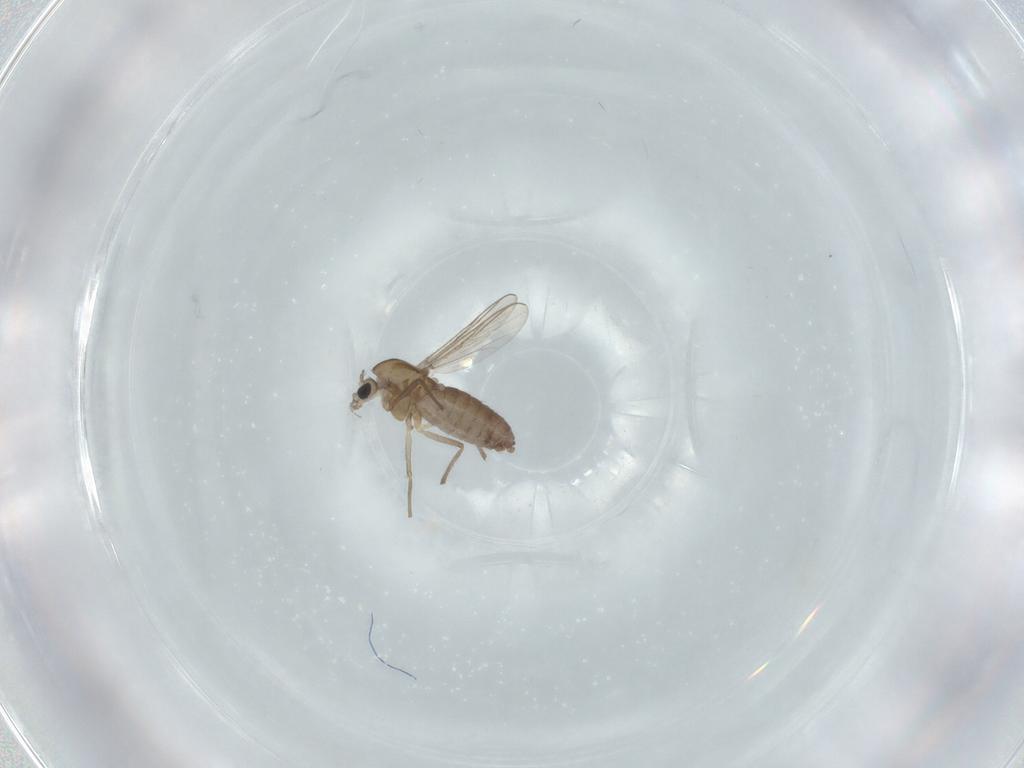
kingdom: Animalia
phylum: Arthropoda
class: Insecta
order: Diptera
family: Chironomidae
